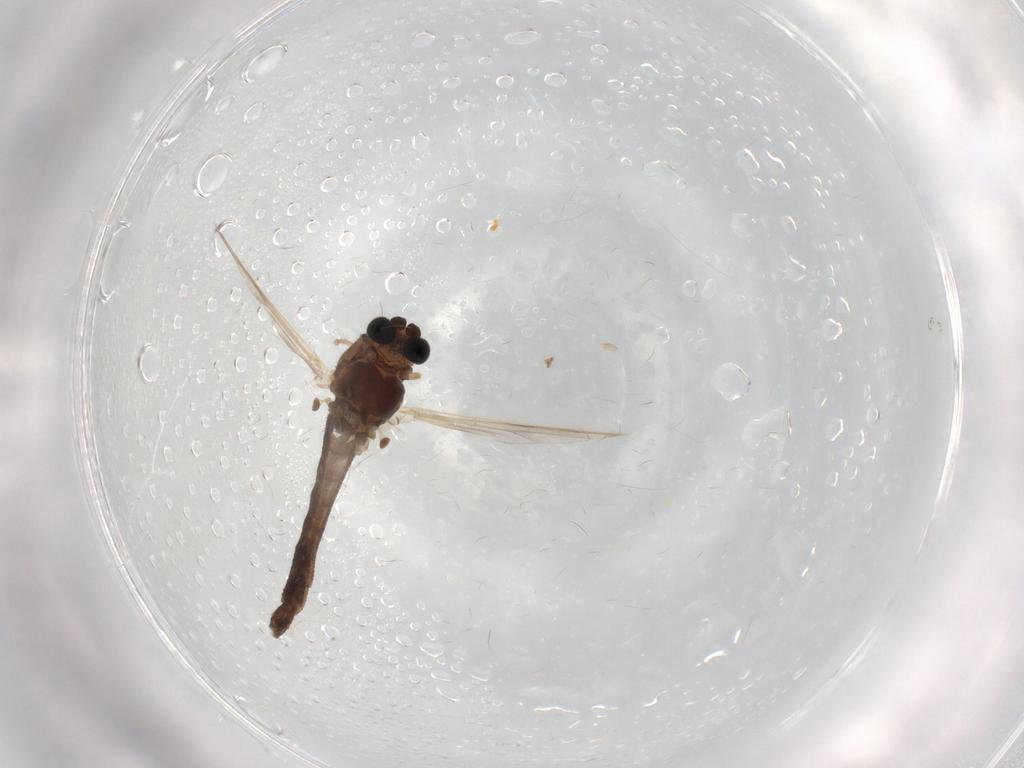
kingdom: Animalia
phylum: Arthropoda
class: Insecta
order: Diptera
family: Chironomidae
